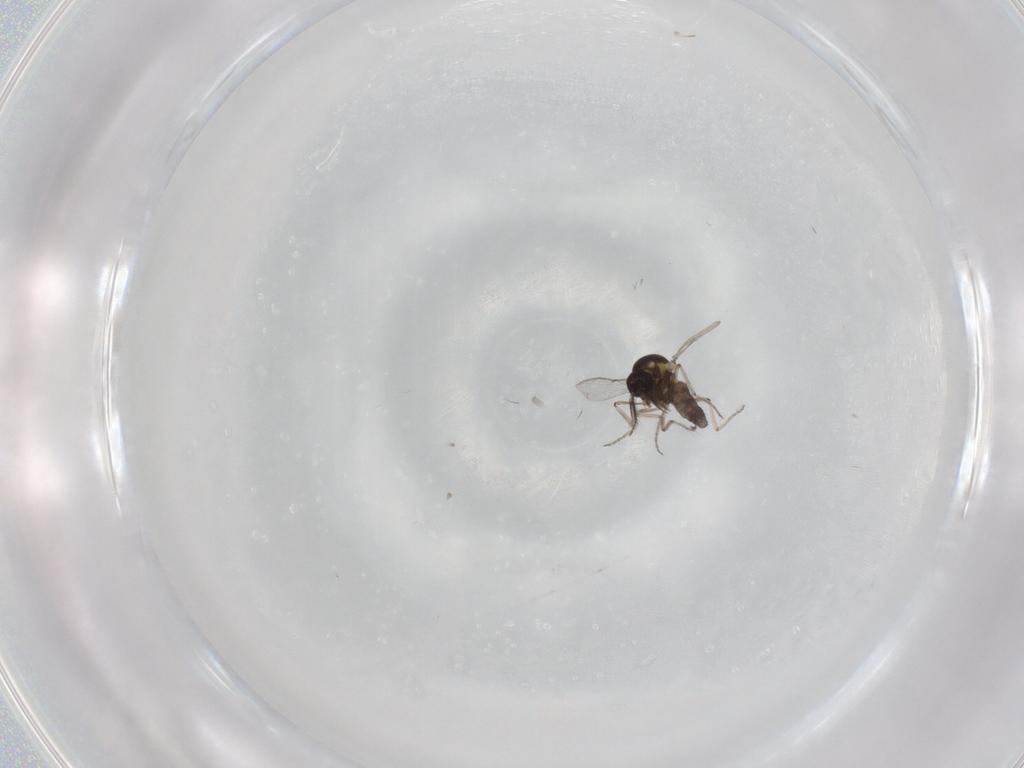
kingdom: Animalia
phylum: Arthropoda
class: Insecta
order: Diptera
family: Ceratopogonidae
